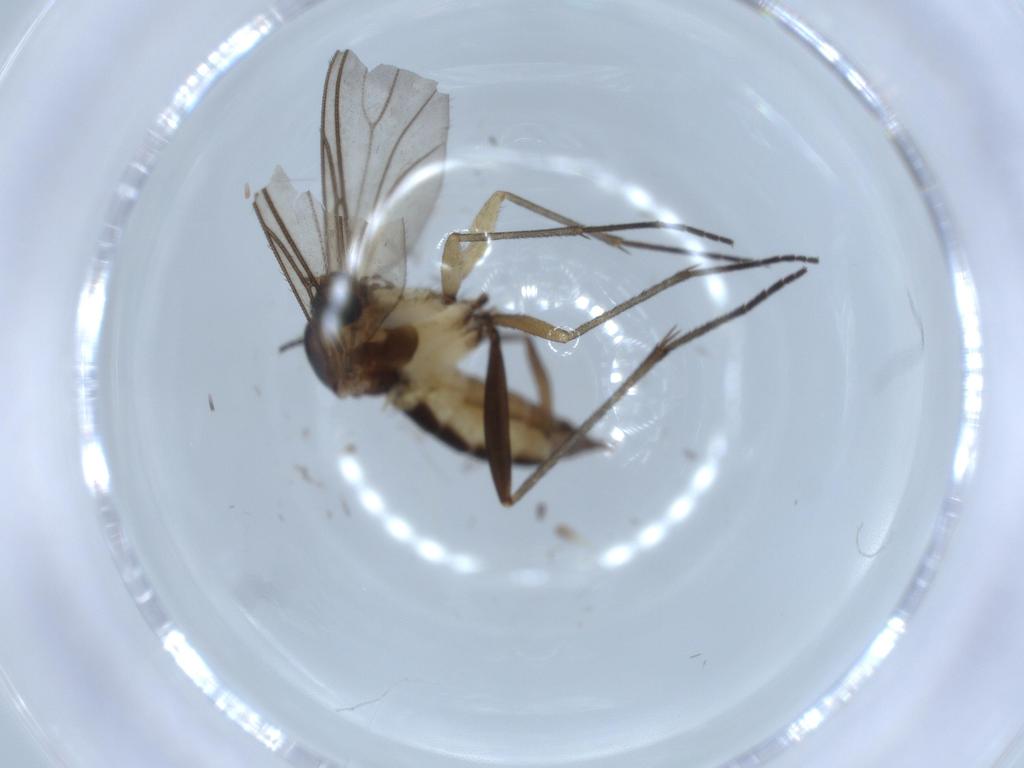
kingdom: Animalia
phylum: Arthropoda
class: Insecta
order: Diptera
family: Sciaridae
